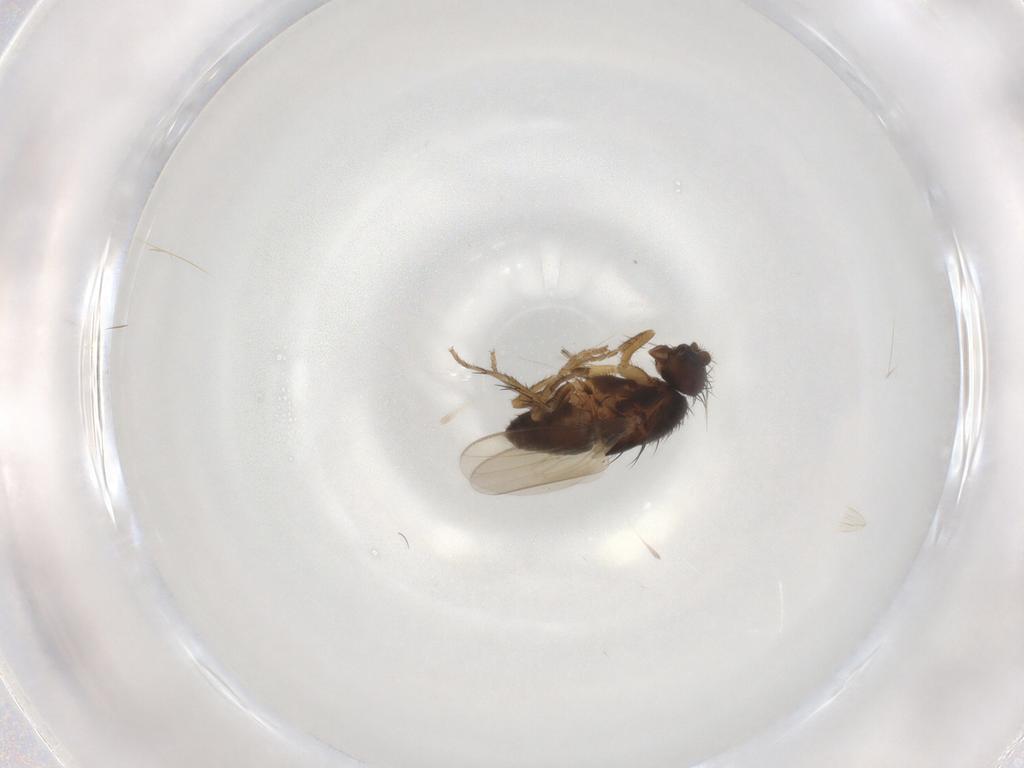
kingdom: Animalia
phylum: Arthropoda
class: Insecta
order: Diptera
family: Sphaeroceridae
